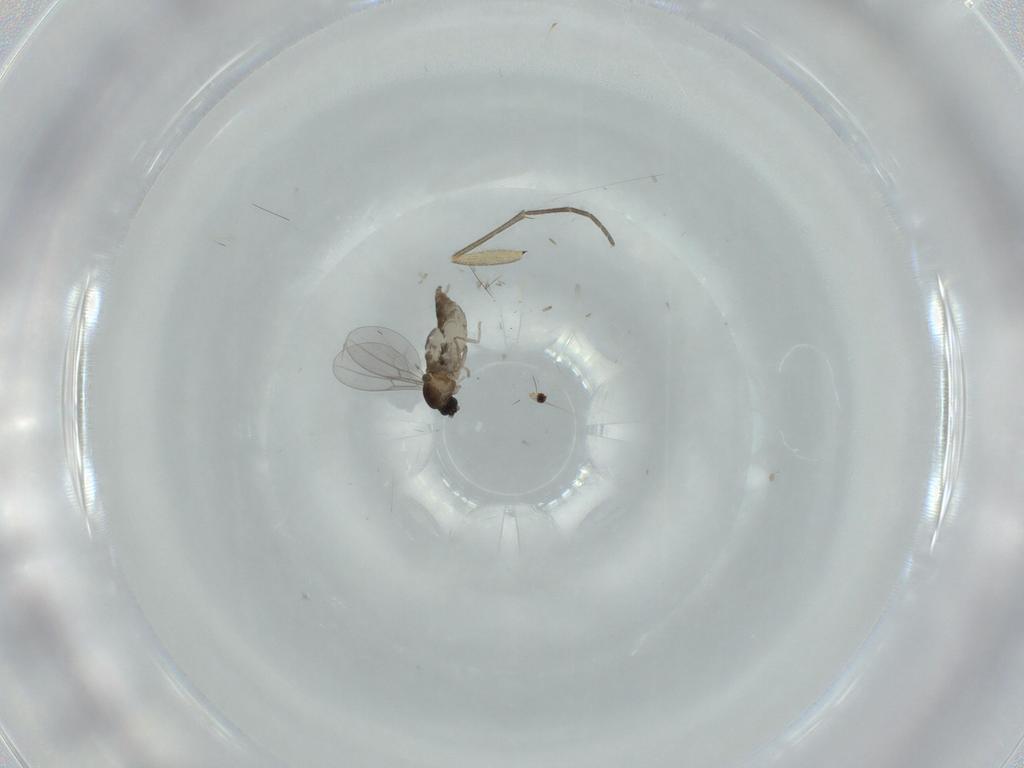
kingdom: Animalia
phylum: Arthropoda
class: Insecta
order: Diptera
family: Cecidomyiidae
